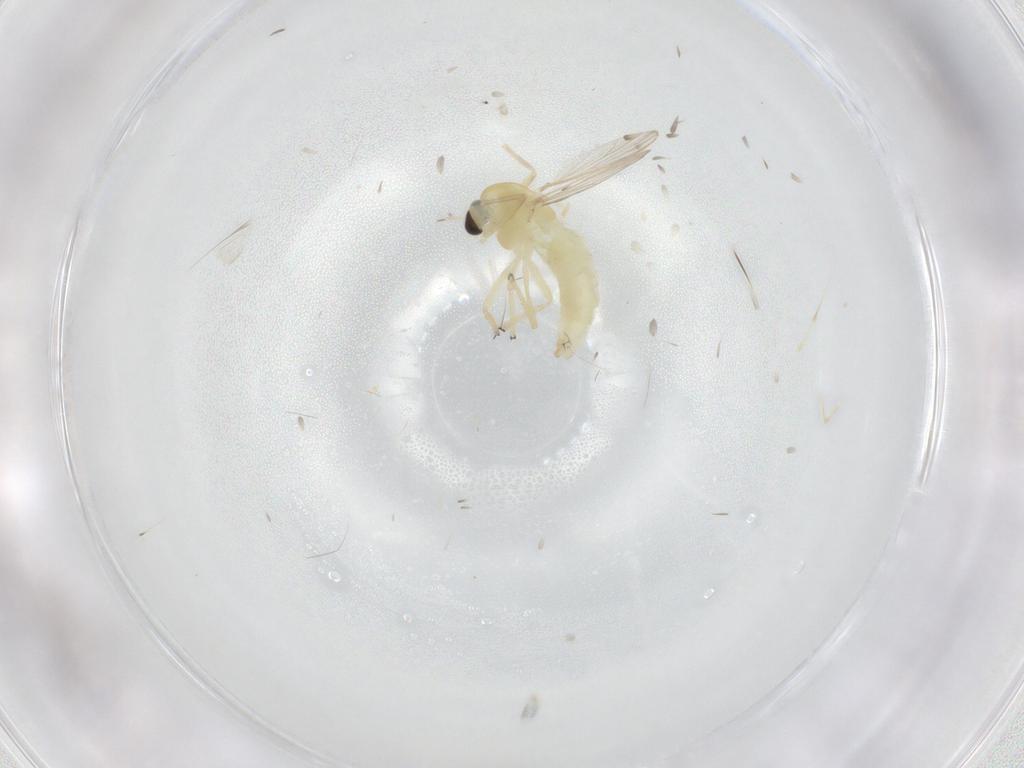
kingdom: Animalia
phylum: Arthropoda
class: Insecta
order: Diptera
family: Chironomidae
